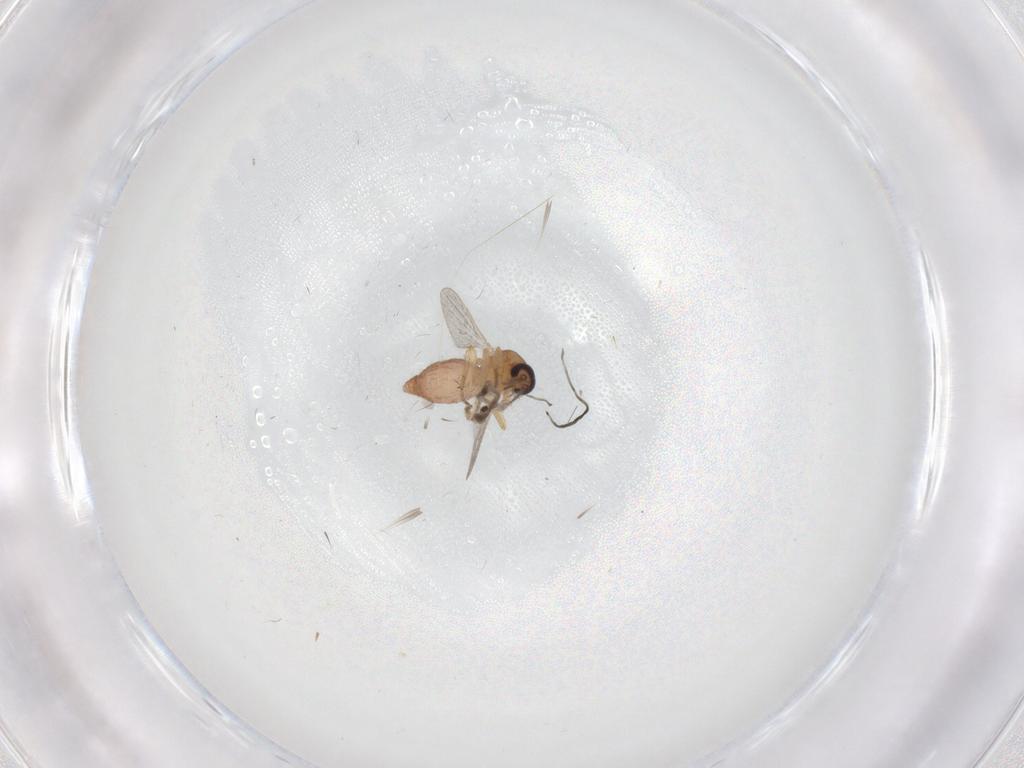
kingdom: Animalia
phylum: Arthropoda
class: Insecta
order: Diptera
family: Ceratopogonidae
